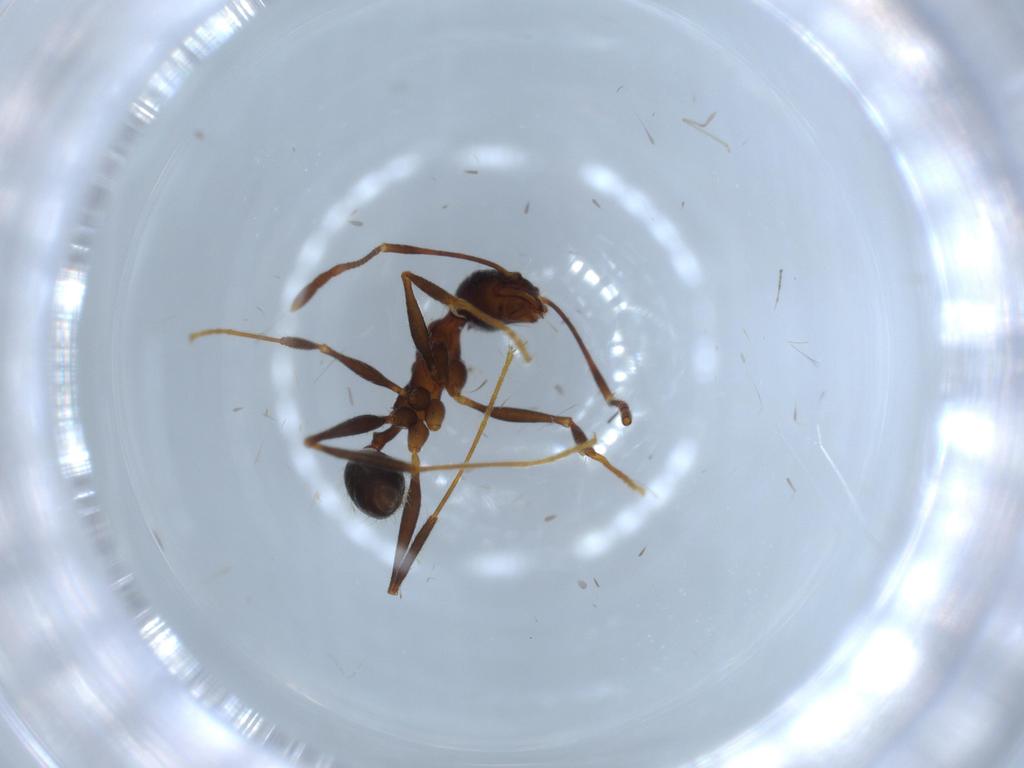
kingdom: Animalia
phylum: Arthropoda
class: Insecta
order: Hymenoptera
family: Formicidae
